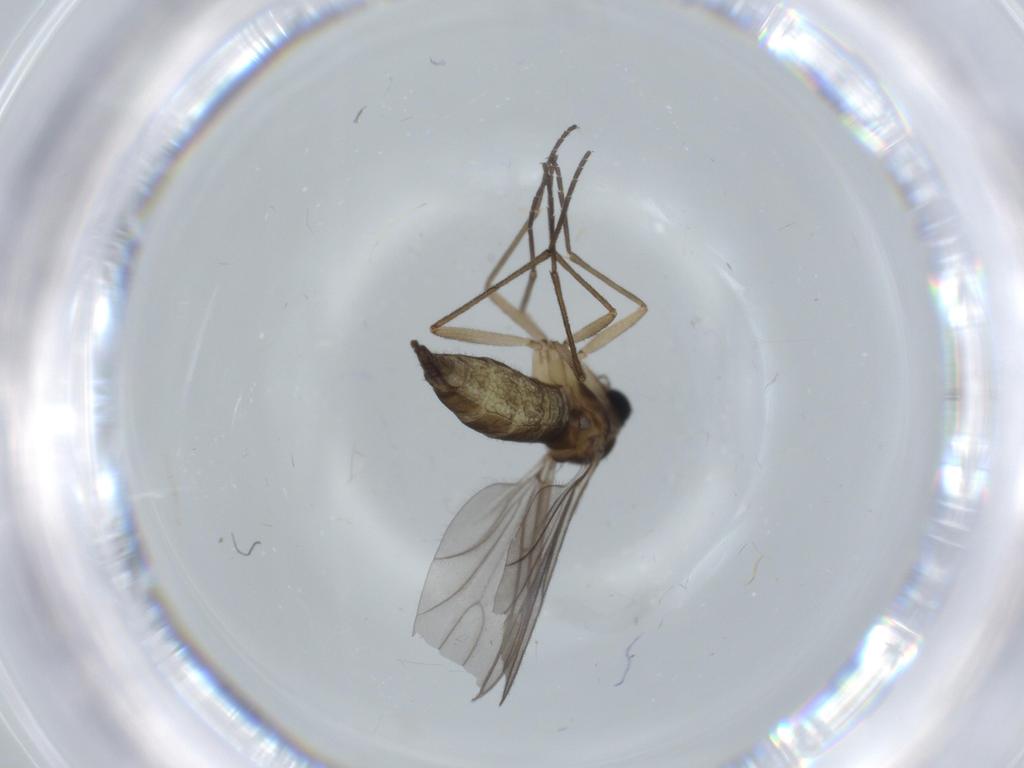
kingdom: Animalia
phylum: Arthropoda
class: Insecta
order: Diptera
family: Sciaridae
